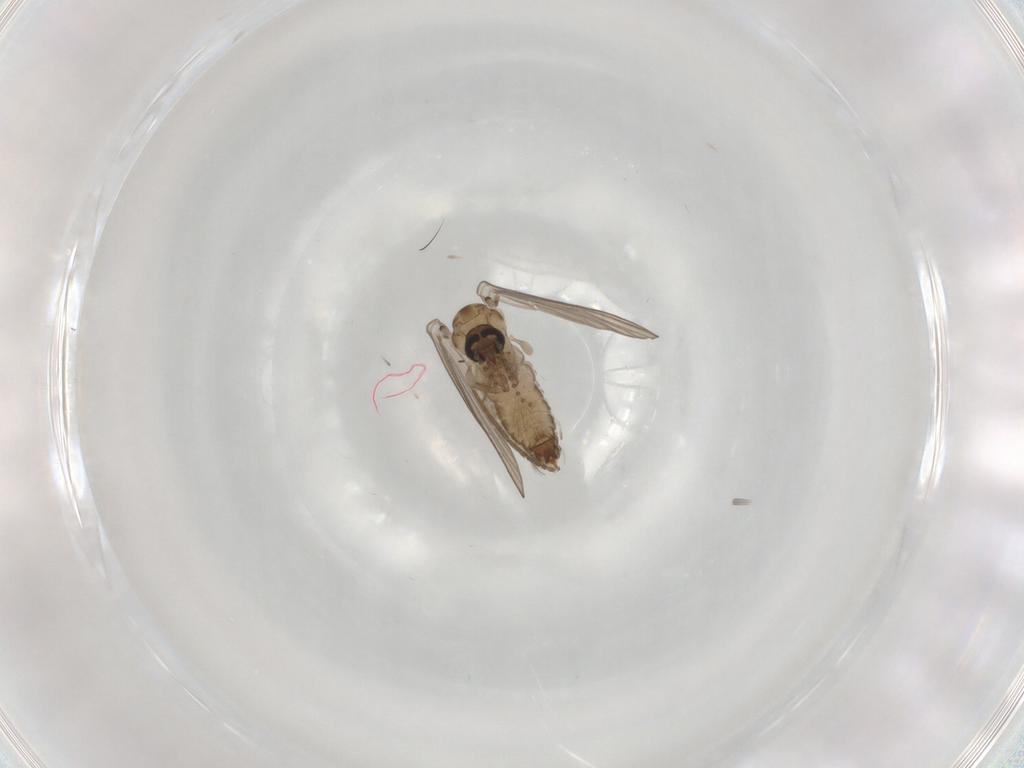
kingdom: Animalia
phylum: Arthropoda
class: Insecta
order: Diptera
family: Psychodidae
